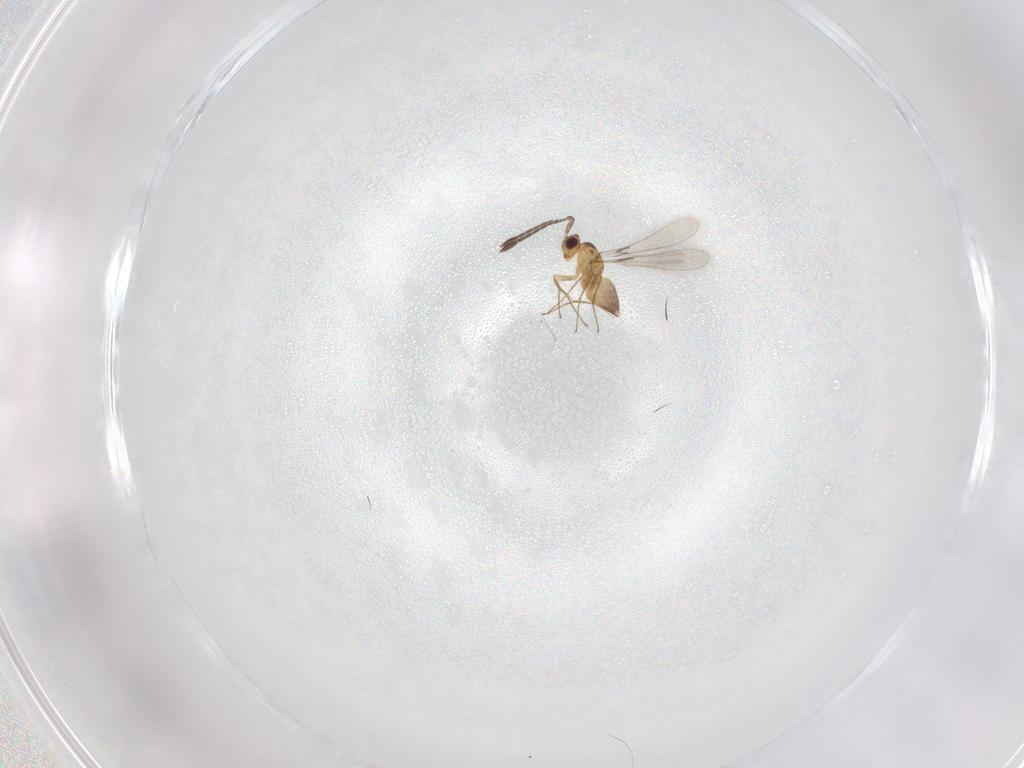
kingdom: Animalia
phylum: Arthropoda
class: Insecta
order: Hymenoptera
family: Mymaridae
